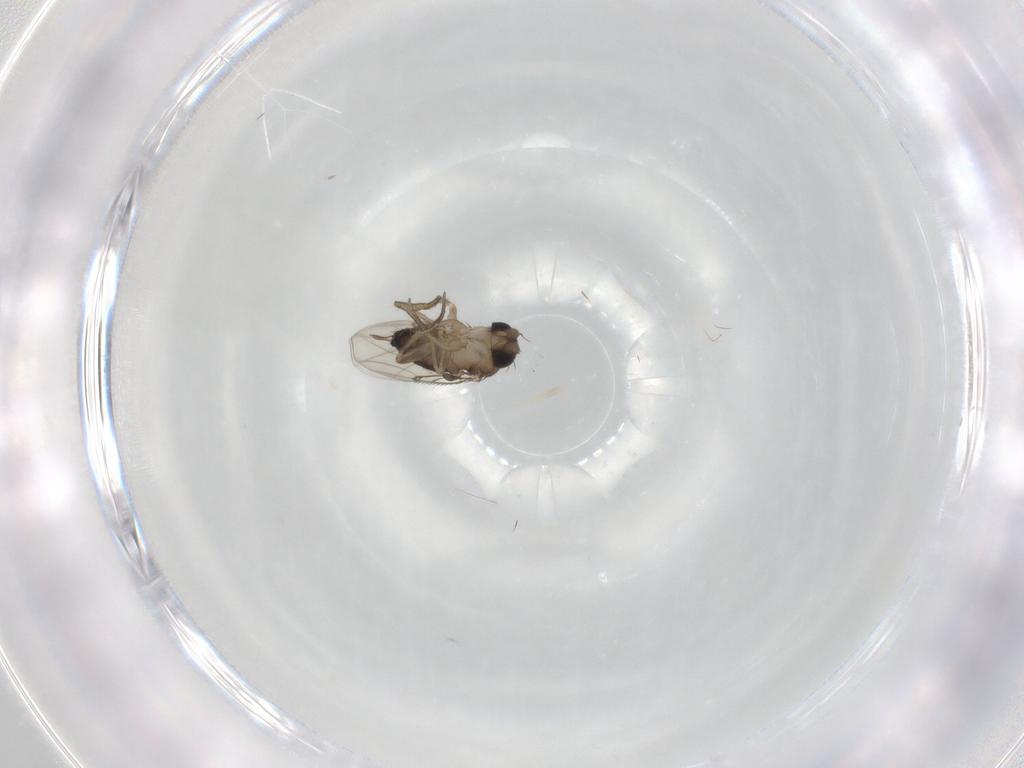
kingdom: Animalia
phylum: Arthropoda
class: Insecta
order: Diptera
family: Phoridae
